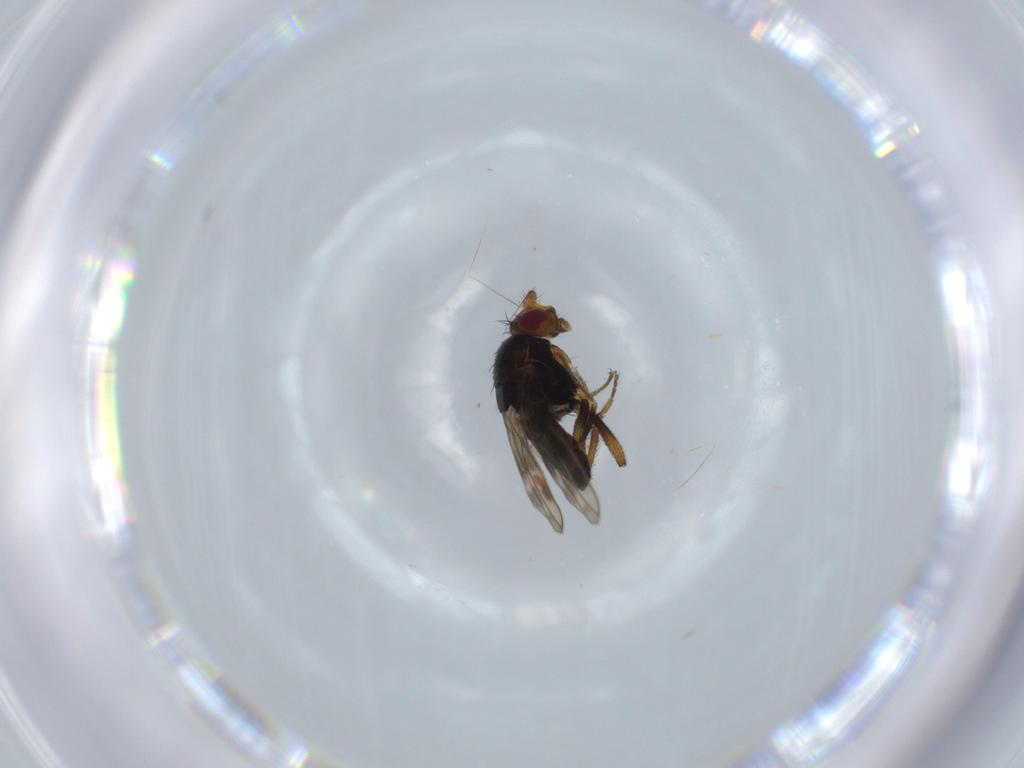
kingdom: Animalia
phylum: Arthropoda
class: Insecta
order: Diptera
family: Sphaeroceridae
